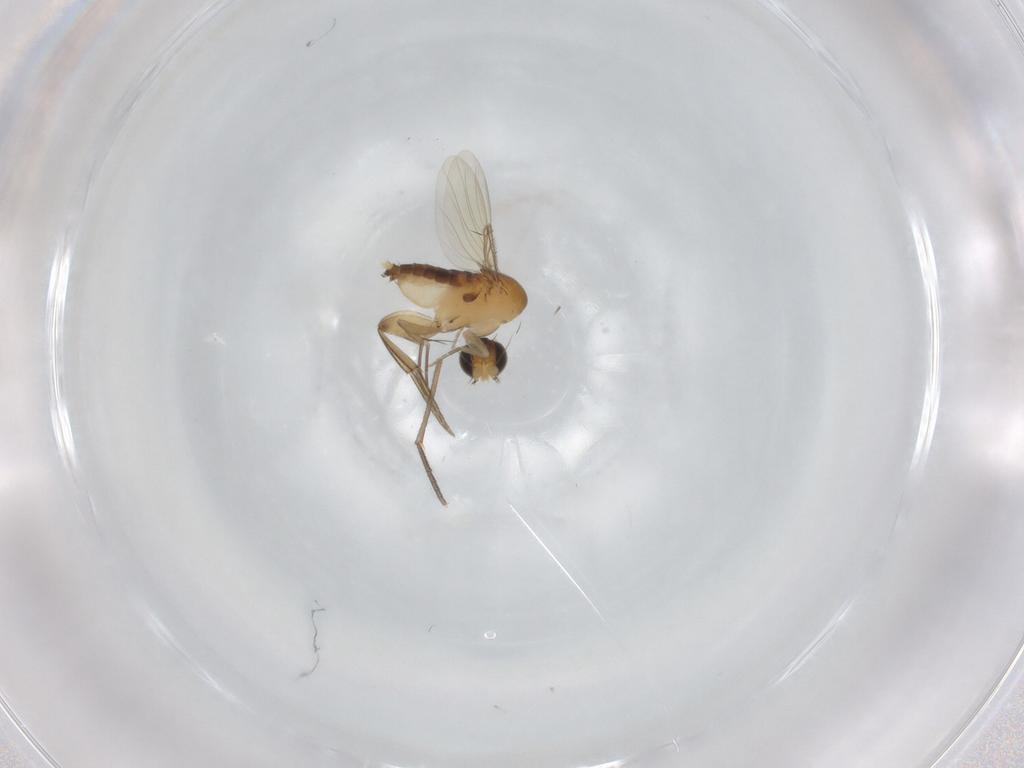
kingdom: Animalia
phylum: Arthropoda
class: Insecta
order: Diptera
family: Phoridae
